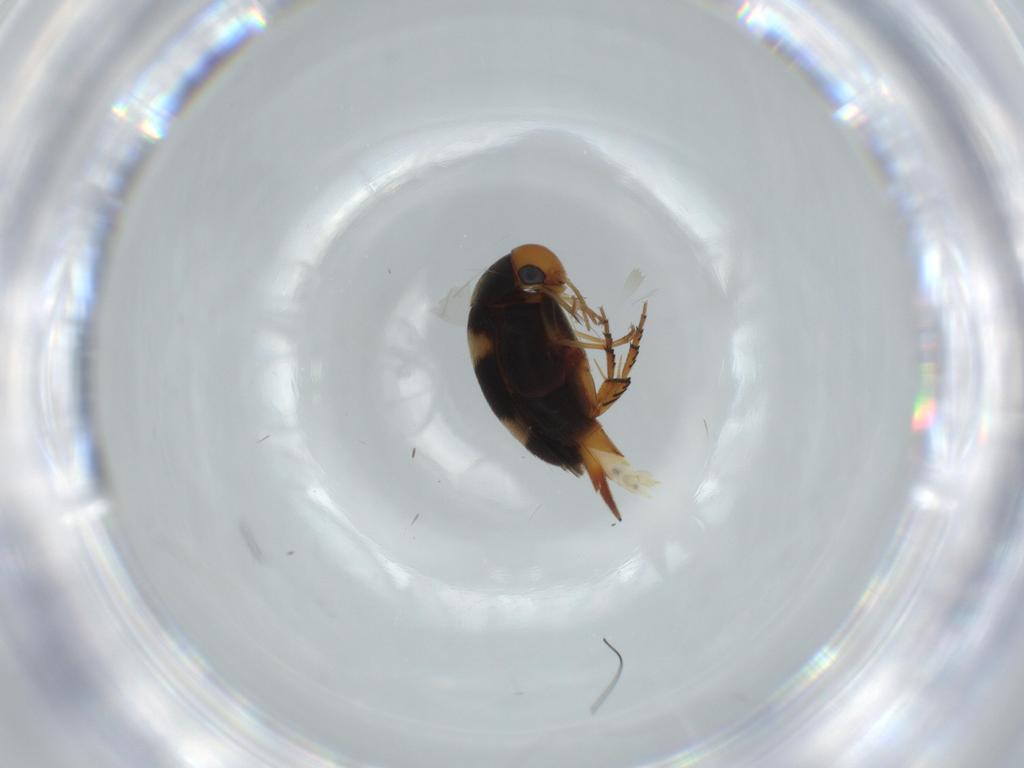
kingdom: Animalia
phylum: Arthropoda
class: Insecta
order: Coleoptera
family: Mordellidae
